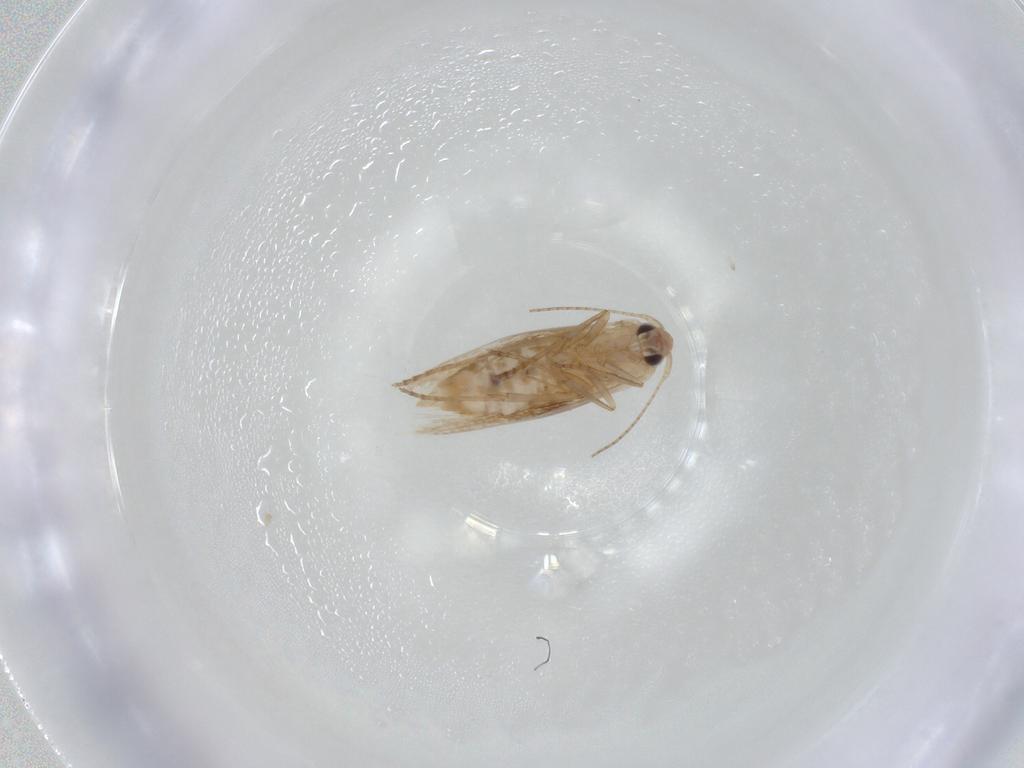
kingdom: Animalia
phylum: Arthropoda
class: Insecta
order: Lepidoptera
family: Bucculatricidae
